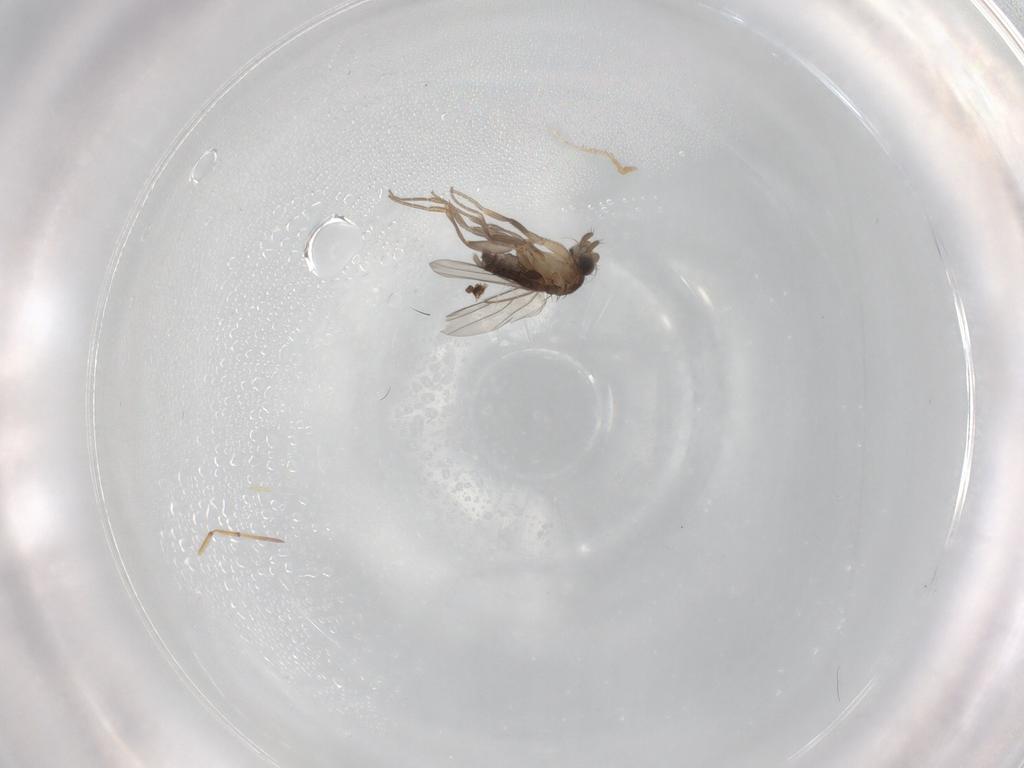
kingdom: Animalia
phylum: Arthropoda
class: Insecta
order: Diptera
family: Phoridae
